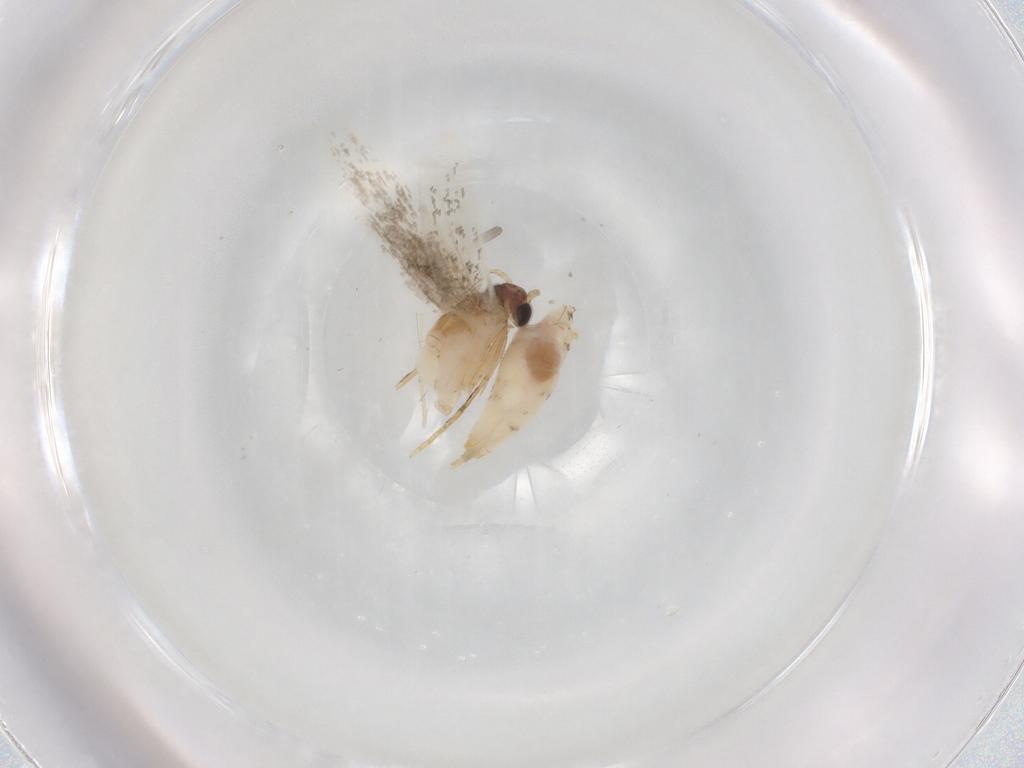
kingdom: Animalia
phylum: Arthropoda
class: Insecta
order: Lepidoptera
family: Tineidae
